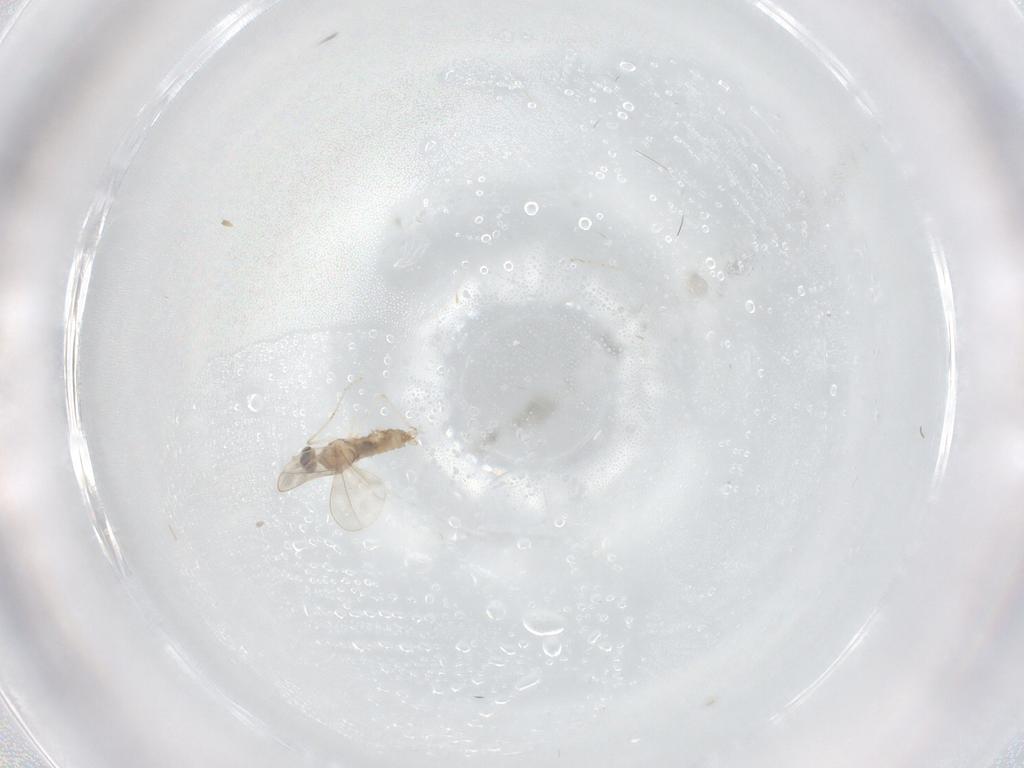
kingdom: Animalia
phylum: Arthropoda
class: Insecta
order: Diptera
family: Cecidomyiidae
